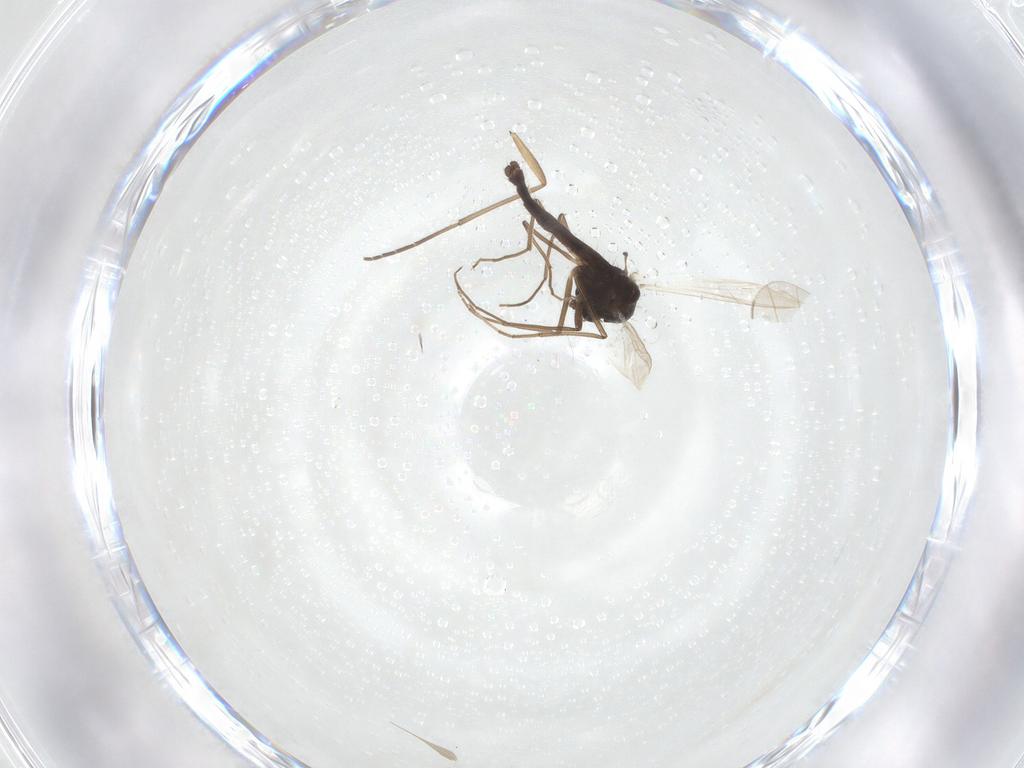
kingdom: Animalia
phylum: Arthropoda
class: Insecta
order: Diptera
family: Chironomidae
